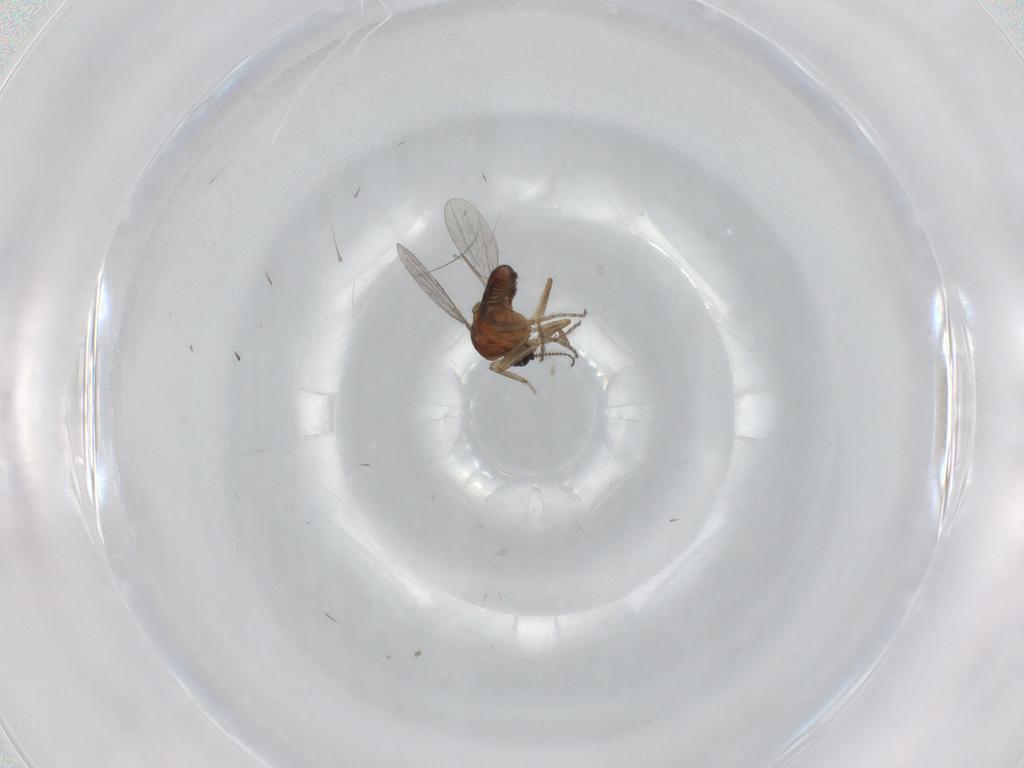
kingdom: Animalia
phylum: Arthropoda
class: Insecta
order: Diptera
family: Ceratopogonidae
